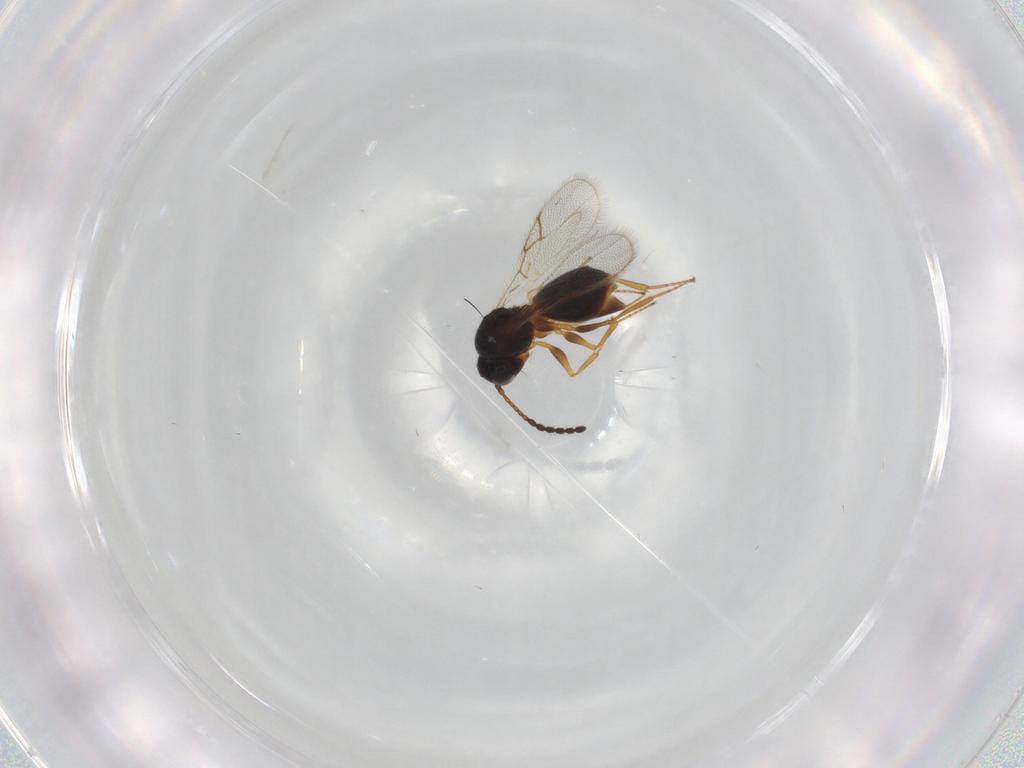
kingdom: Animalia
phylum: Arthropoda
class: Insecta
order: Hymenoptera
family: Figitidae
